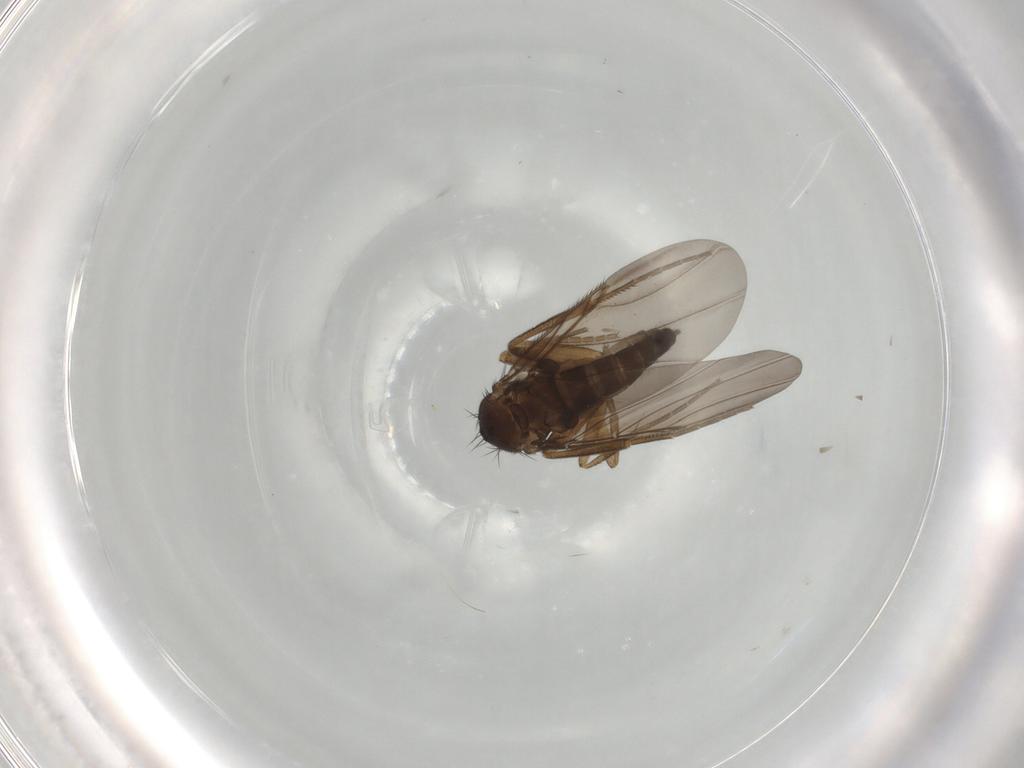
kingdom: Animalia
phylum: Arthropoda
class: Insecta
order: Diptera
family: Phoridae
